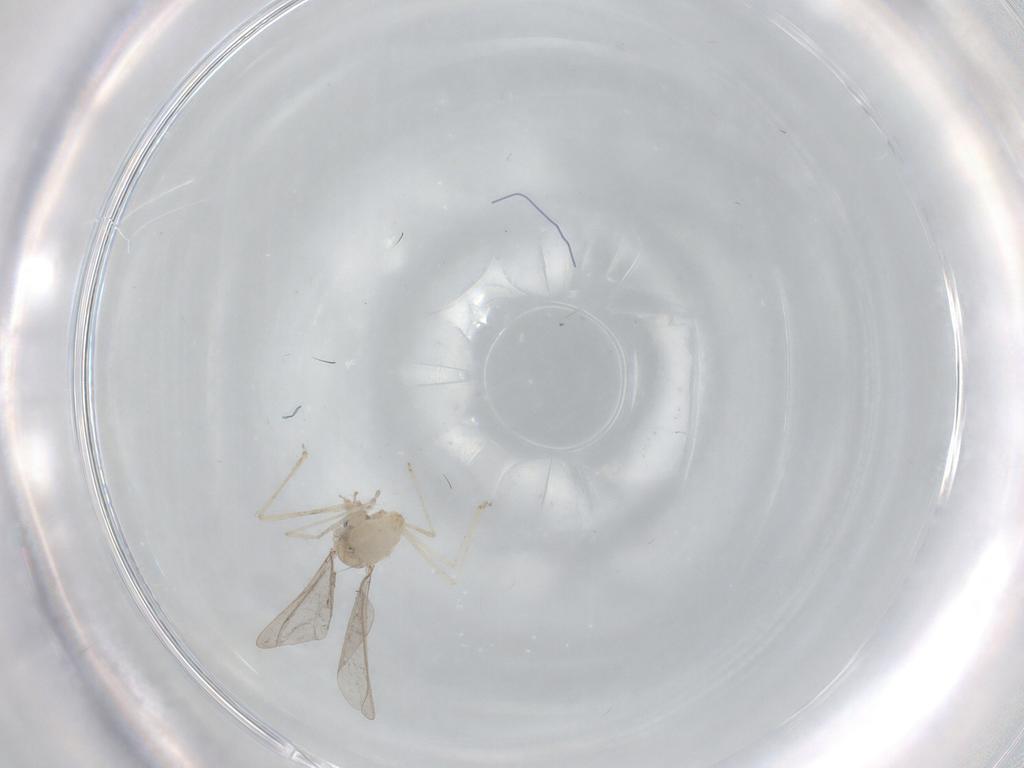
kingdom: Animalia
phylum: Arthropoda
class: Insecta
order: Diptera
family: Cecidomyiidae
